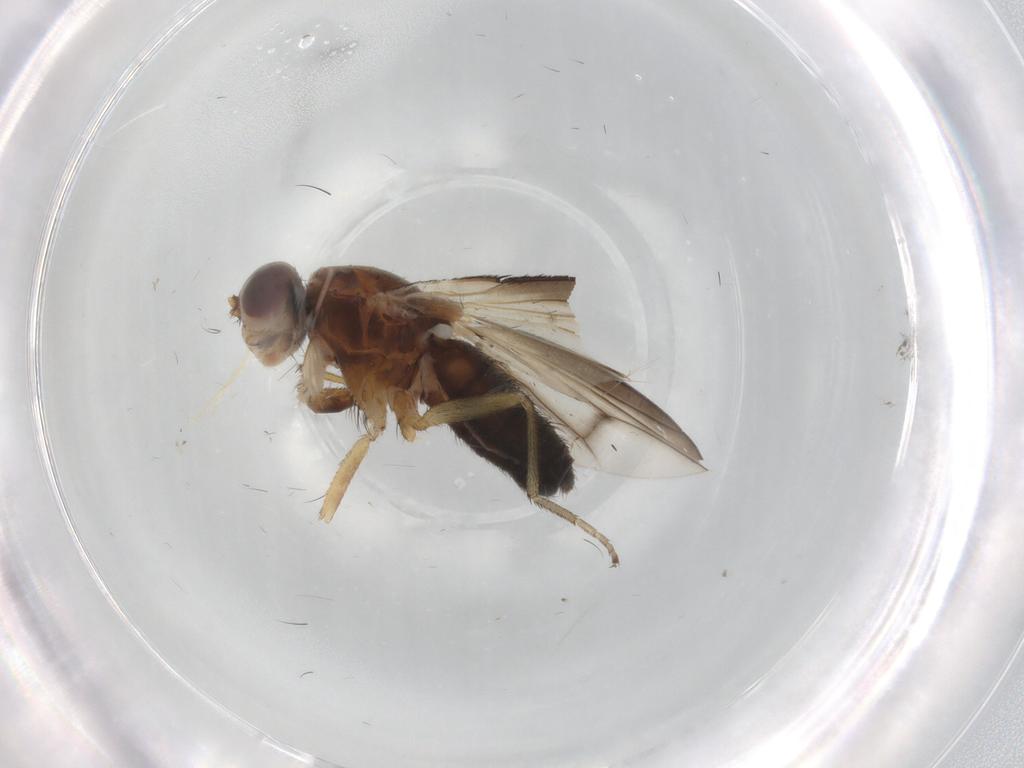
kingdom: Animalia
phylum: Arthropoda
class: Insecta
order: Diptera
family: Heleomyzidae
